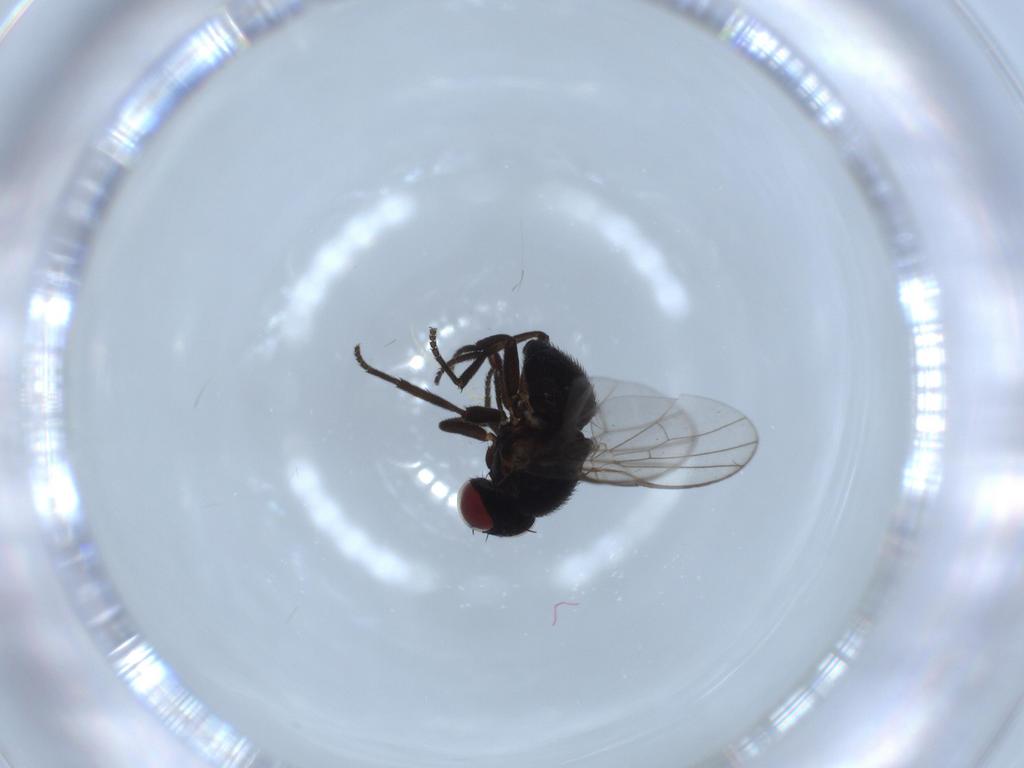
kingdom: Animalia
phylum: Arthropoda
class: Insecta
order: Diptera
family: Agromyzidae
